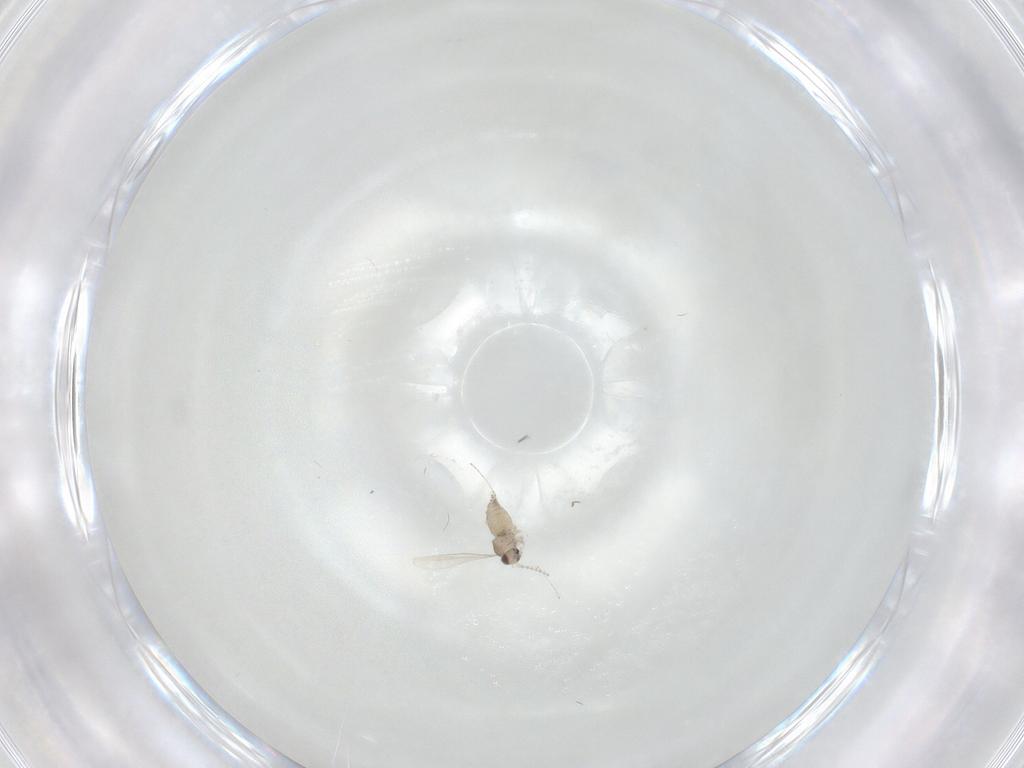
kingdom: Animalia
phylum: Arthropoda
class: Insecta
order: Diptera
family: Cecidomyiidae
